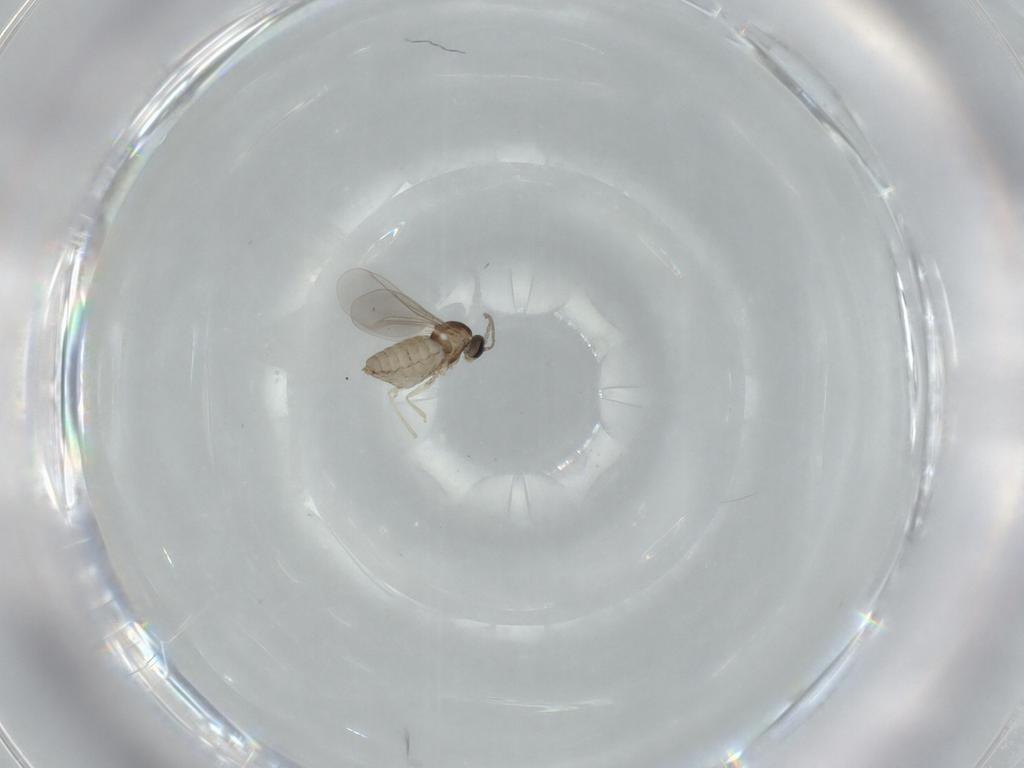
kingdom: Animalia
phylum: Arthropoda
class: Insecta
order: Diptera
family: Cecidomyiidae
